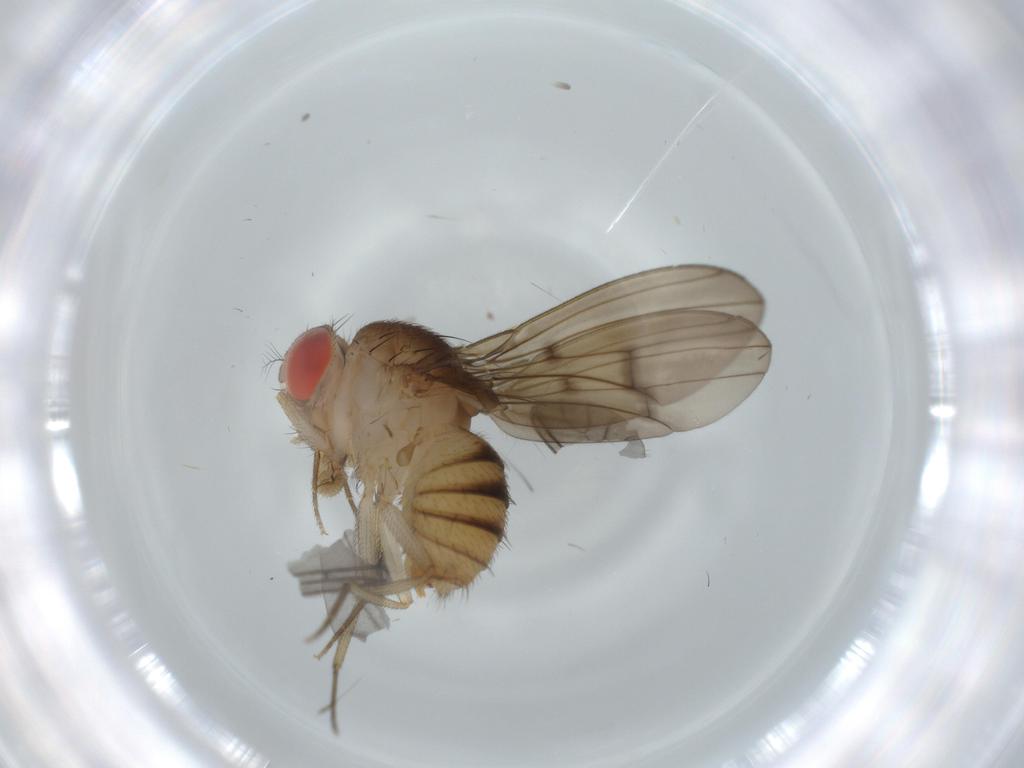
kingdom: Animalia
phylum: Arthropoda
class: Insecta
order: Diptera
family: Drosophilidae
